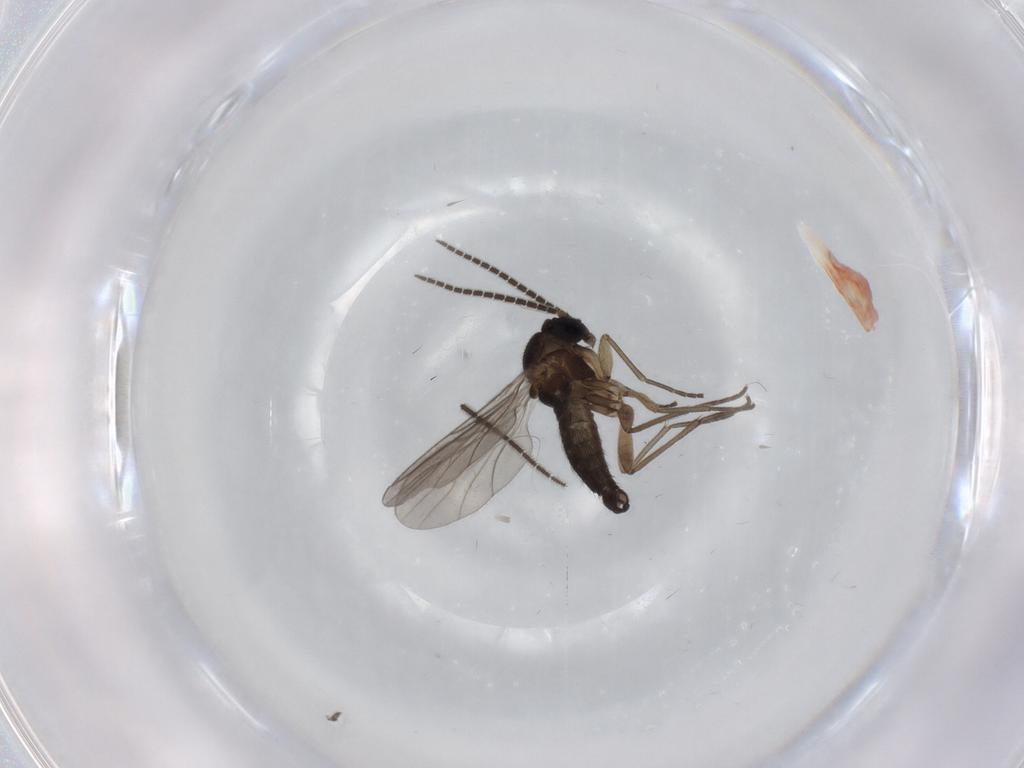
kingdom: Animalia
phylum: Arthropoda
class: Insecta
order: Diptera
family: Sciaridae
